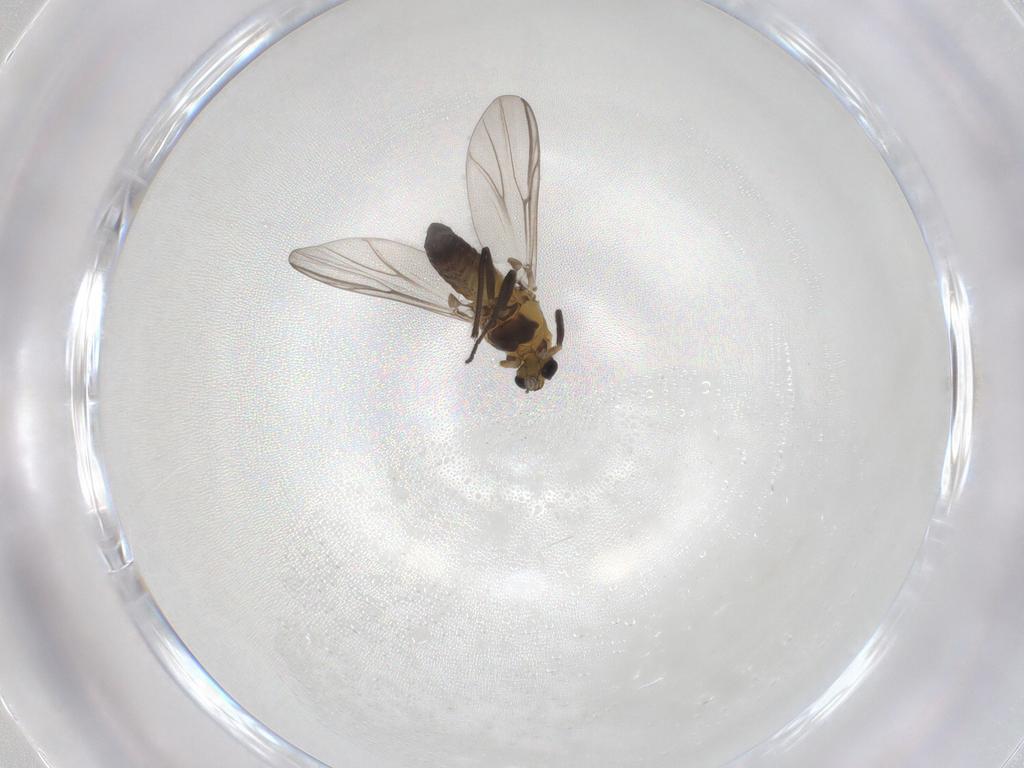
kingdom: Animalia
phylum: Arthropoda
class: Insecta
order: Diptera
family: Chironomidae
